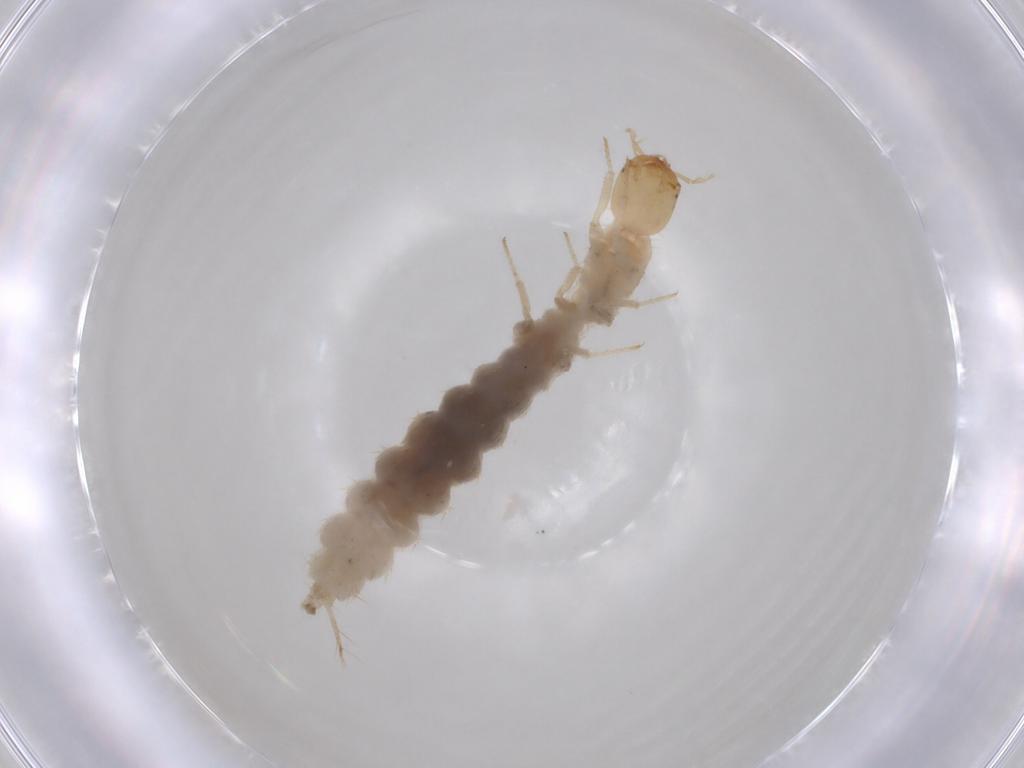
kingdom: Animalia
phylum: Arthropoda
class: Insecta
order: Coleoptera
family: Staphylinidae
